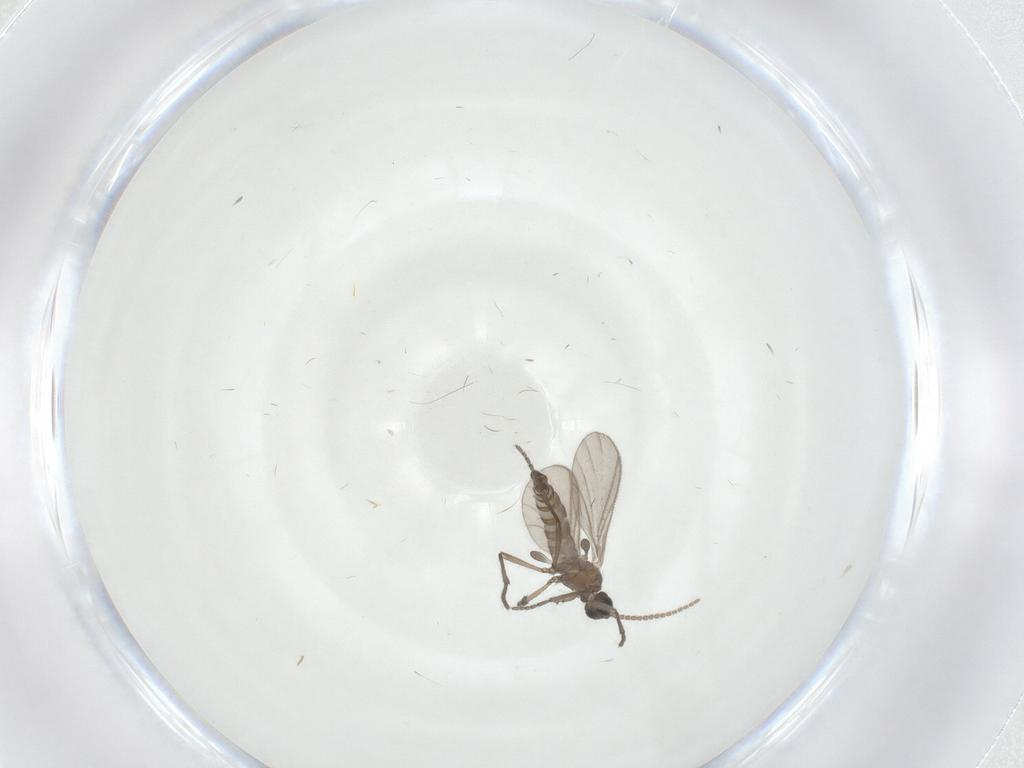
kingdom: Animalia
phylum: Arthropoda
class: Insecta
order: Diptera
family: Sciaridae
